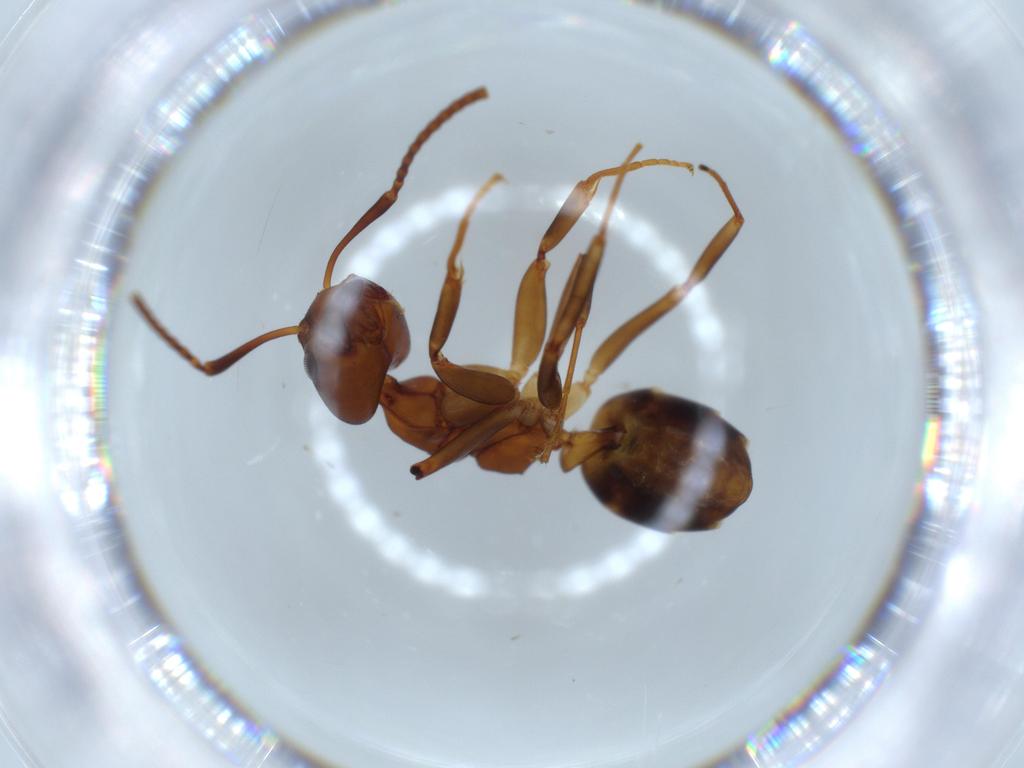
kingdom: Animalia
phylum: Arthropoda
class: Insecta
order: Hymenoptera
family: Formicidae
